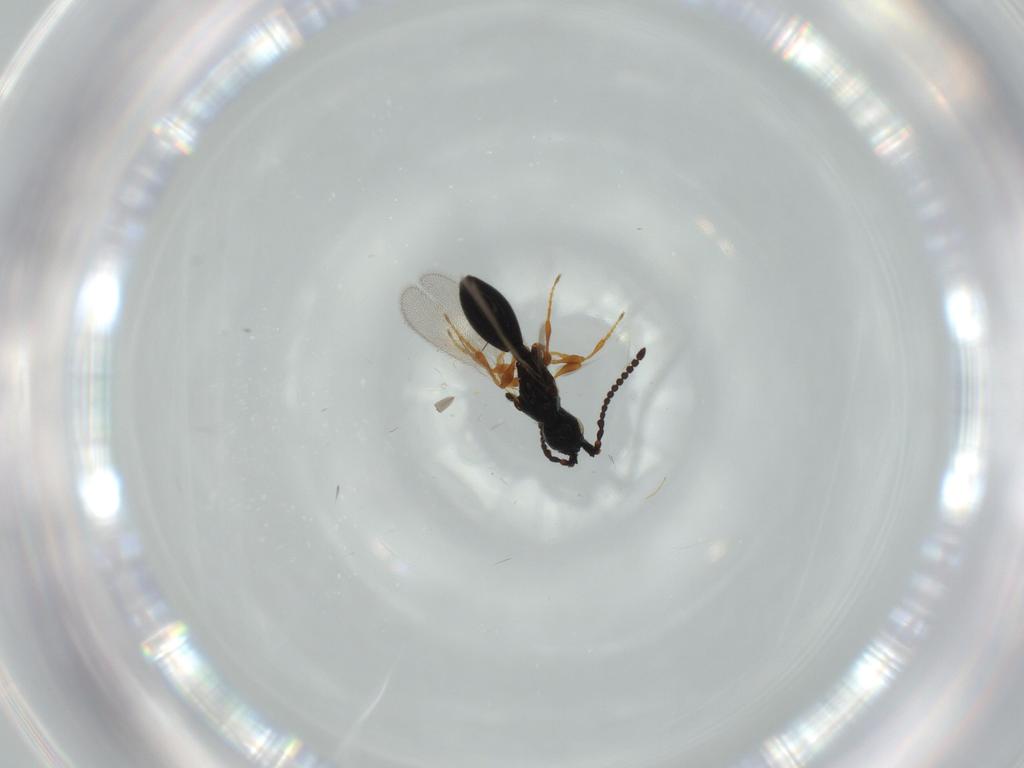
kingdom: Animalia
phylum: Arthropoda
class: Insecta
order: Hymenoptera
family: Diapriidae
